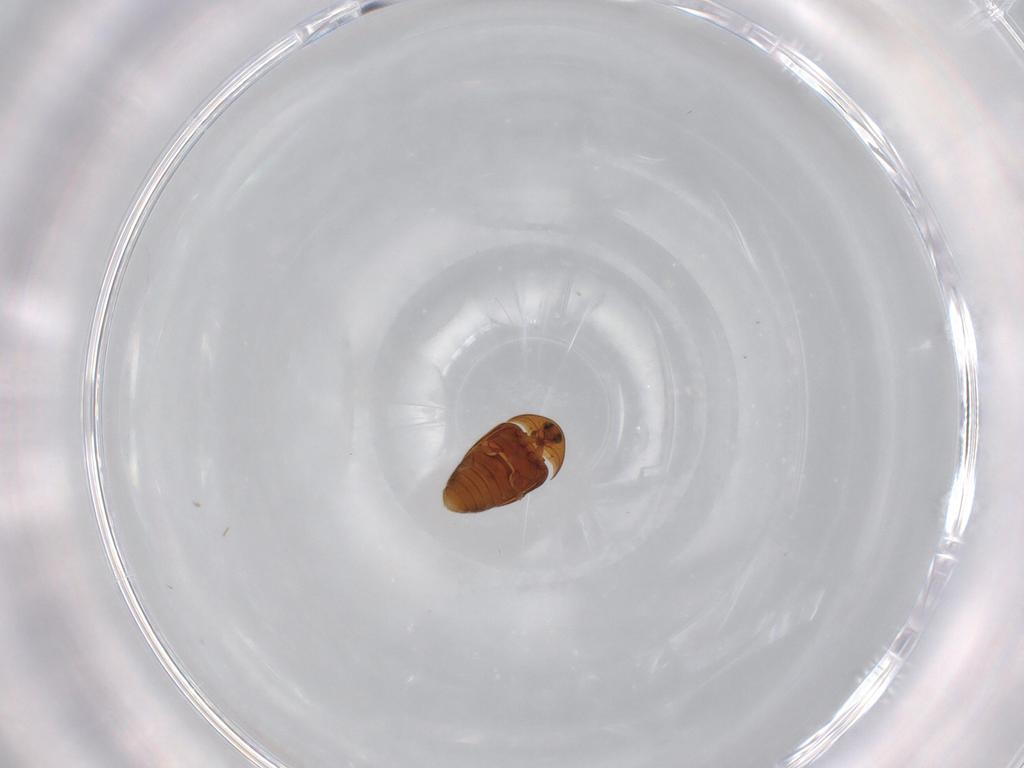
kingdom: Animalia
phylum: Arthropoda
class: Insecta
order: Coleoptera
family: Corylophidae
